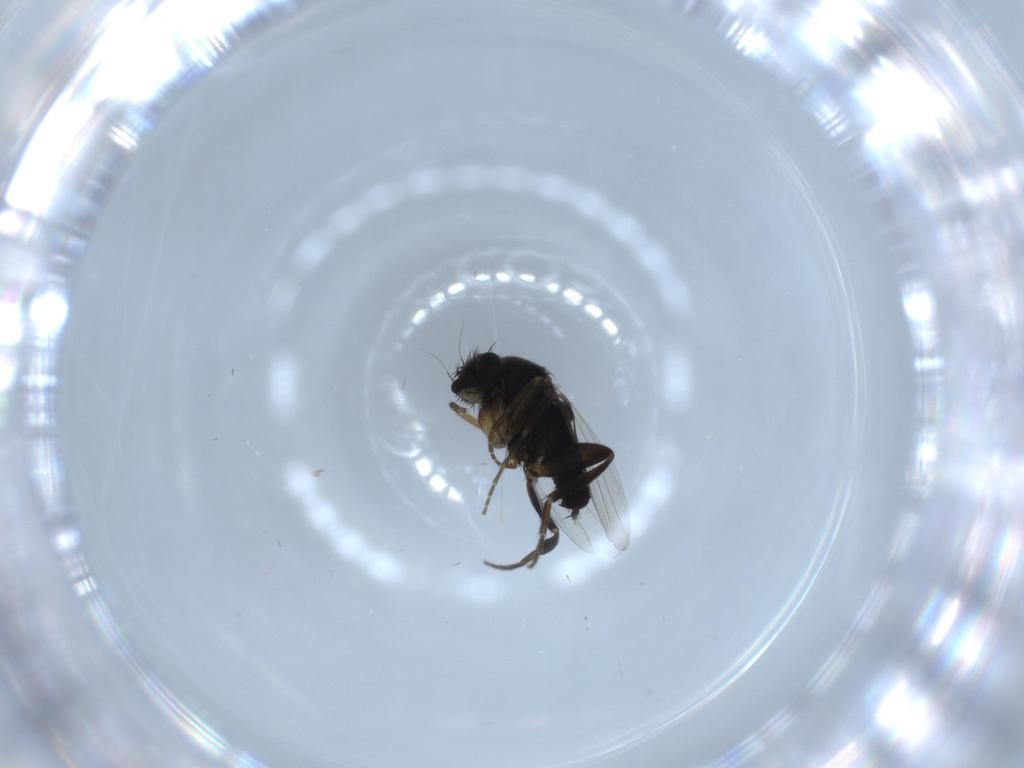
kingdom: Animalia
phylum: Arthropoda
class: Insecta
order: Diptera
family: Phoridae
